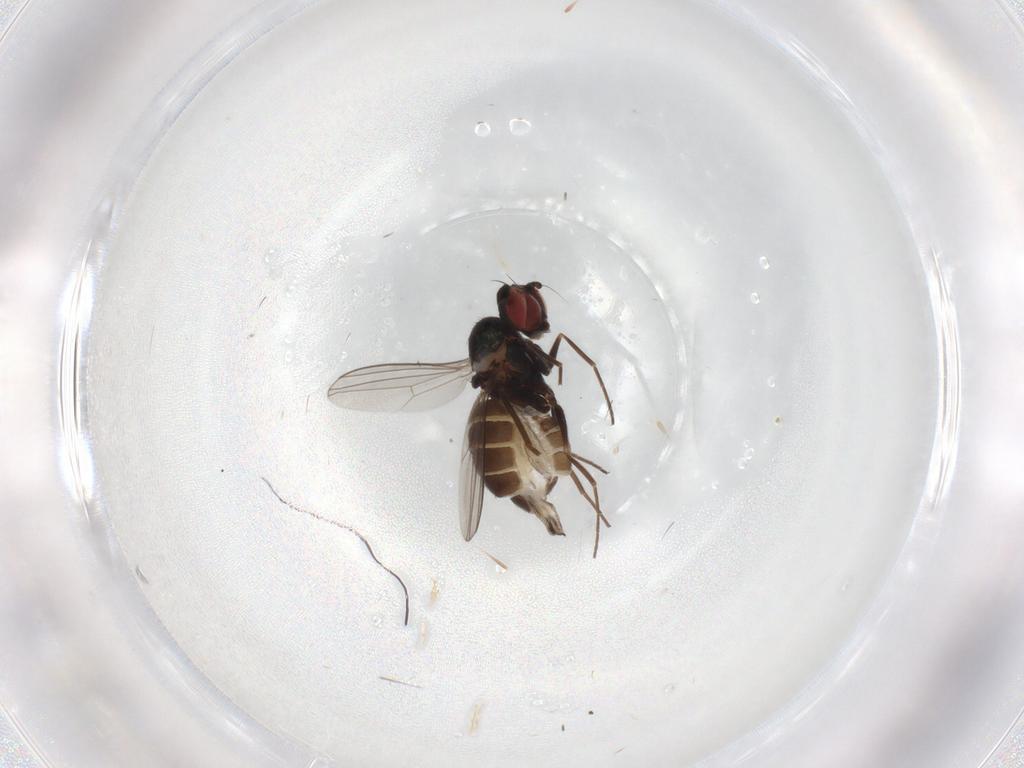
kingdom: Animalia
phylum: Arthropoda
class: Insecta
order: Diptera
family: Dolichopodidae
